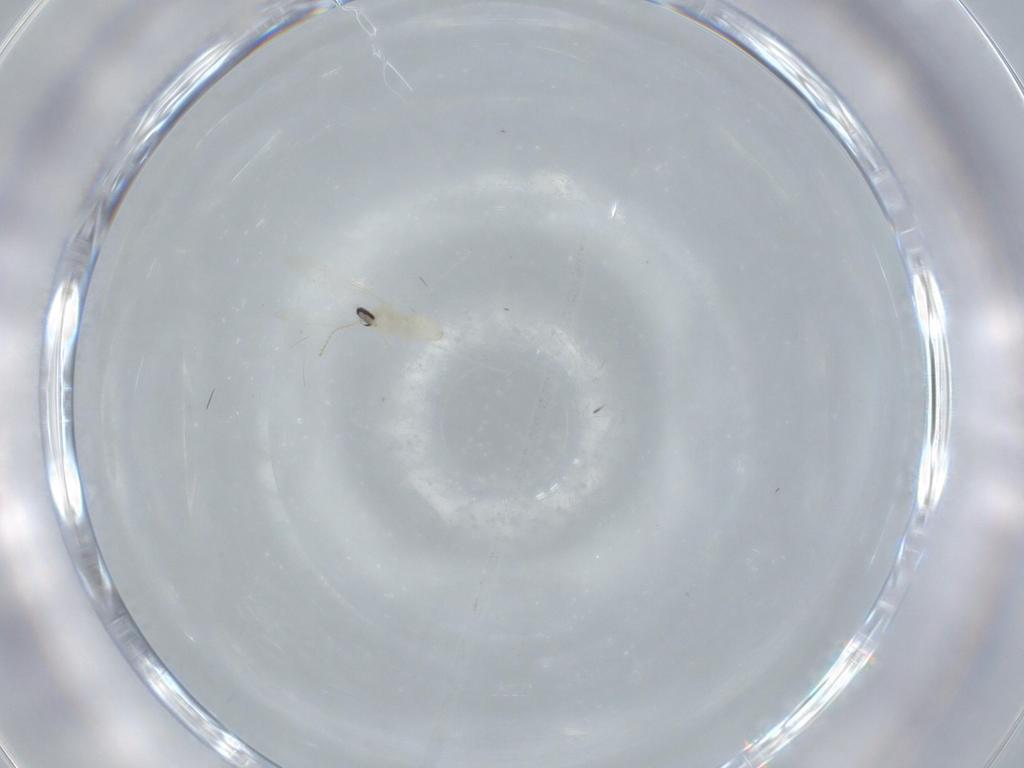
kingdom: Animalia
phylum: Arthropoda
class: Insecta
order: Diptera
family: Cecidomyiidae
